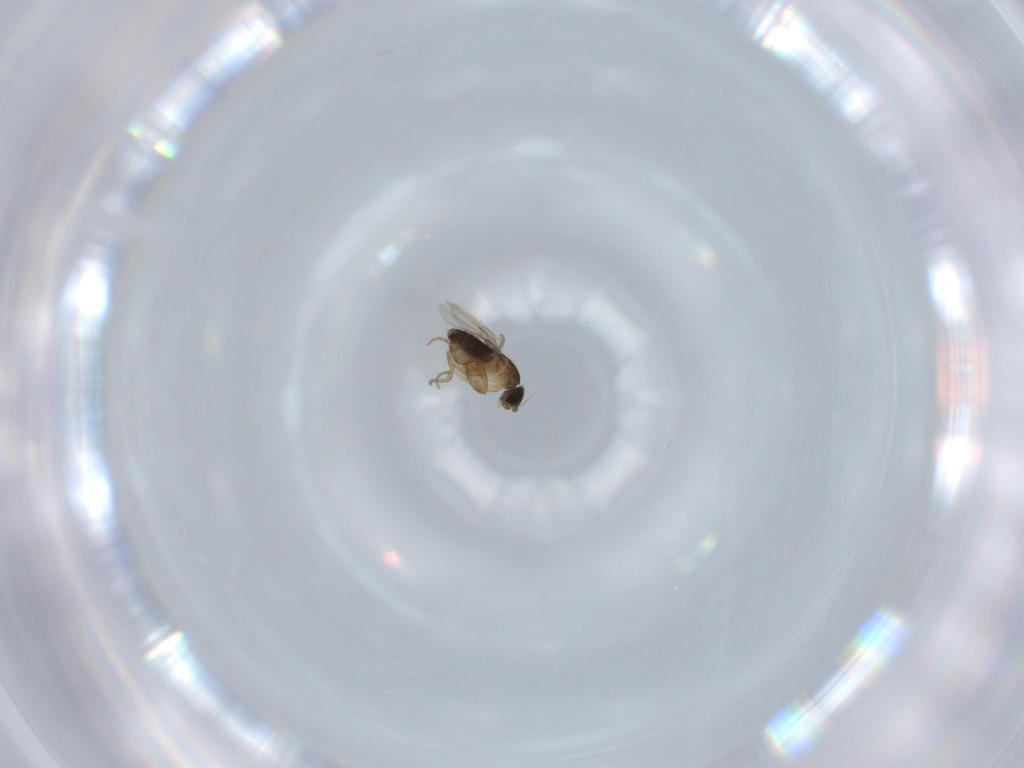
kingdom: Animalia
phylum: Arthropoda
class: Insecta
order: Diptera
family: Phoridae
